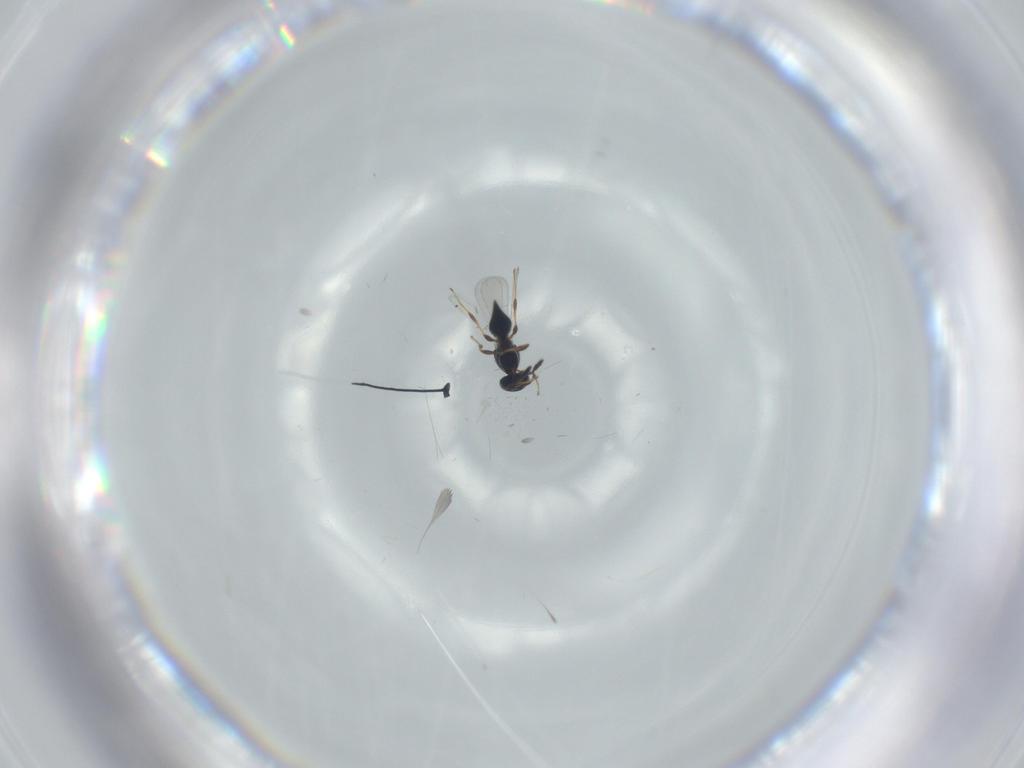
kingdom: Animalia
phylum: Arthropoda
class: Insecta
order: Hymenoptera
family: Platygastridae
